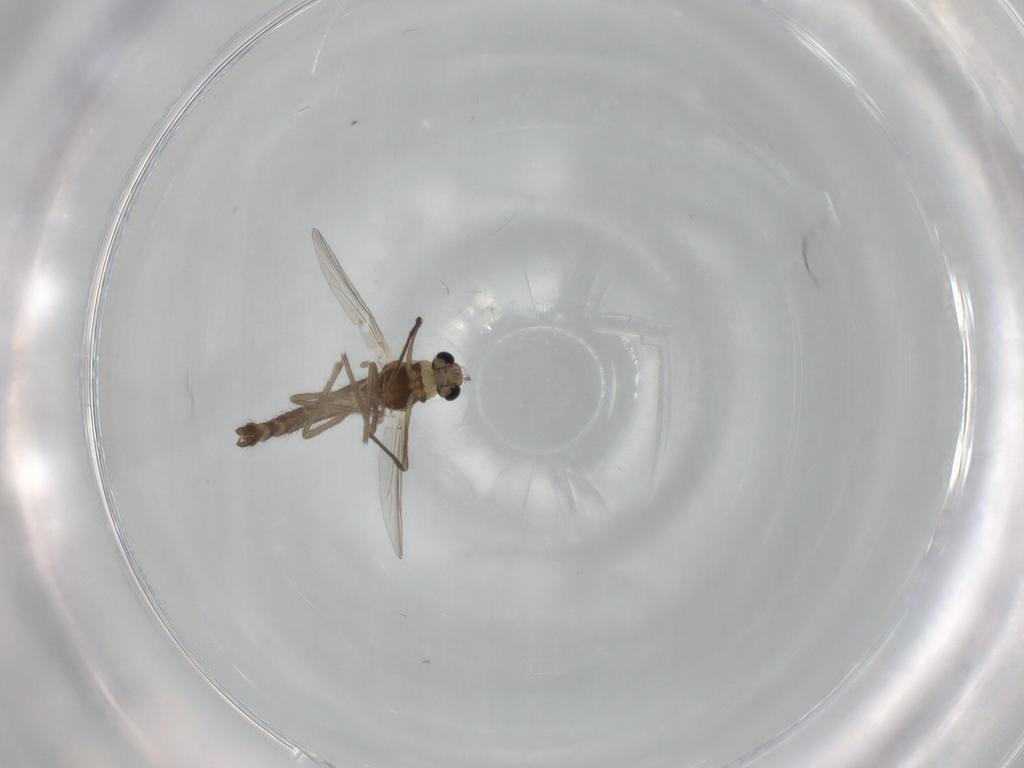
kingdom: Animalia
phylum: Arthropoda
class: Insecta
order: Diptera
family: Chironomidae
